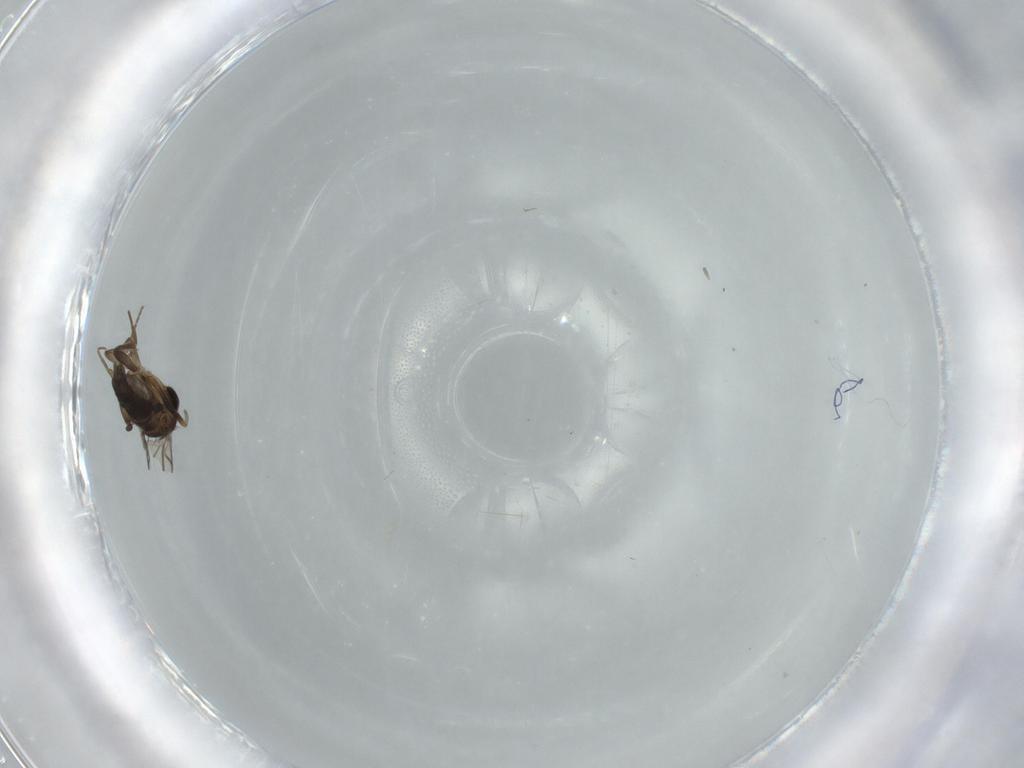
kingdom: Animalia
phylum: Arthropoda
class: Insecta
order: Diptera
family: Phoridae
